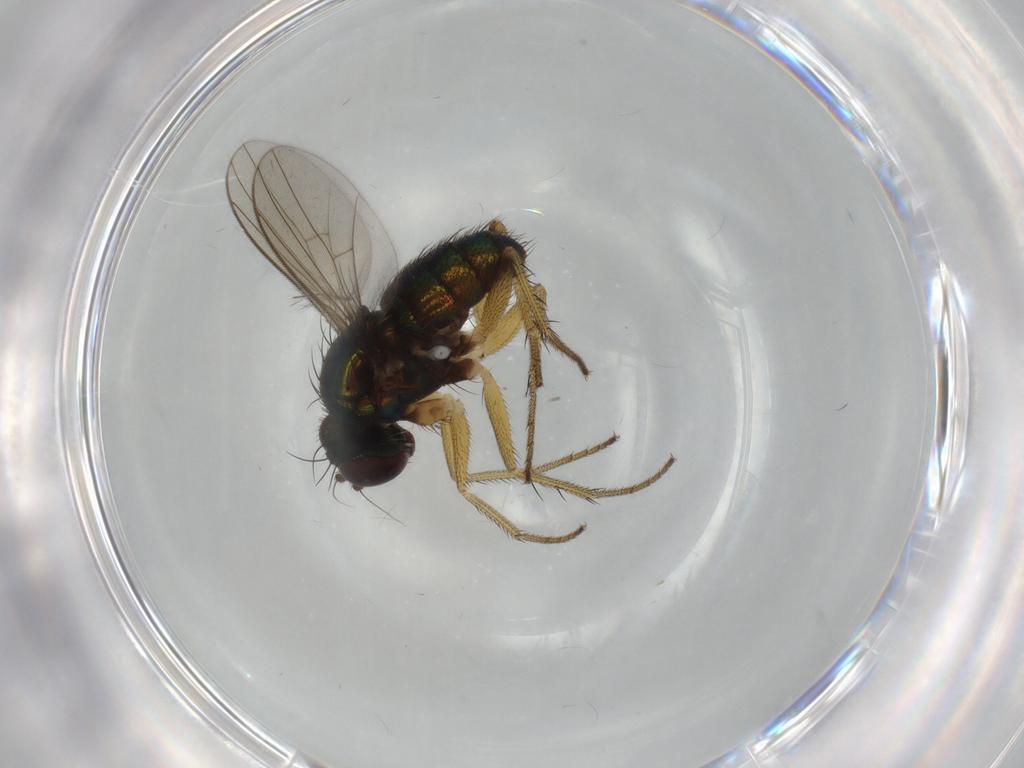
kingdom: Animalia
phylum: Arthropoda
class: Insecta
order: Diptera
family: Dolichopodidae
